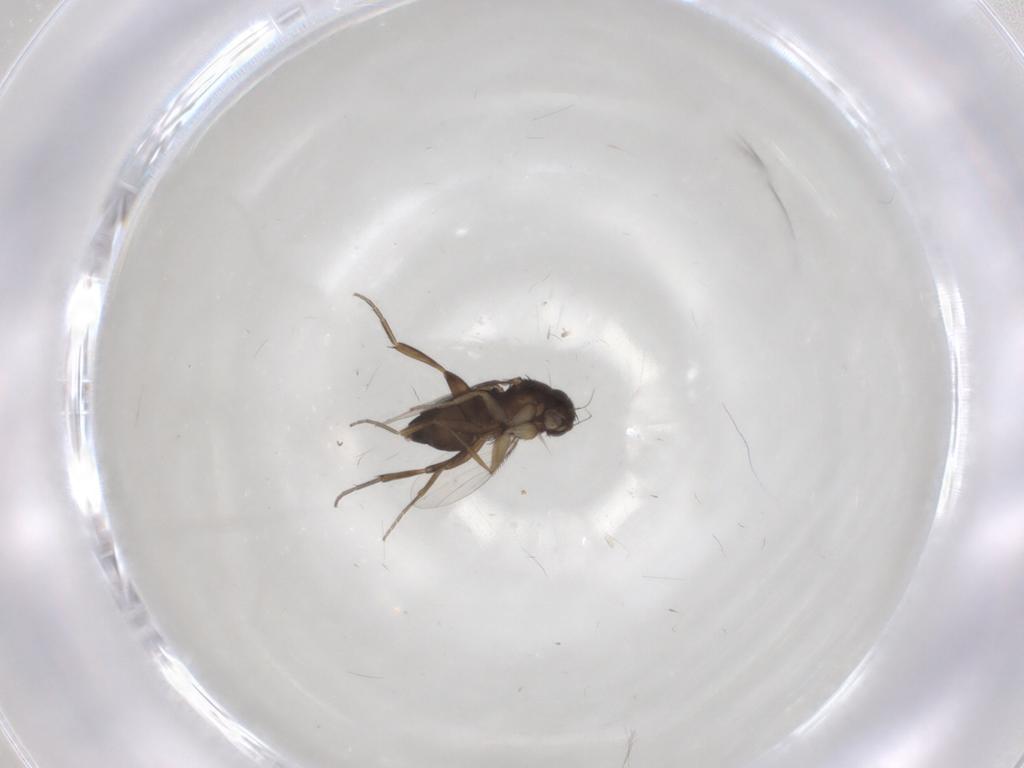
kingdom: Animalia
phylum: Arthropoda
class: Insecta
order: Diptera
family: Phoridae
